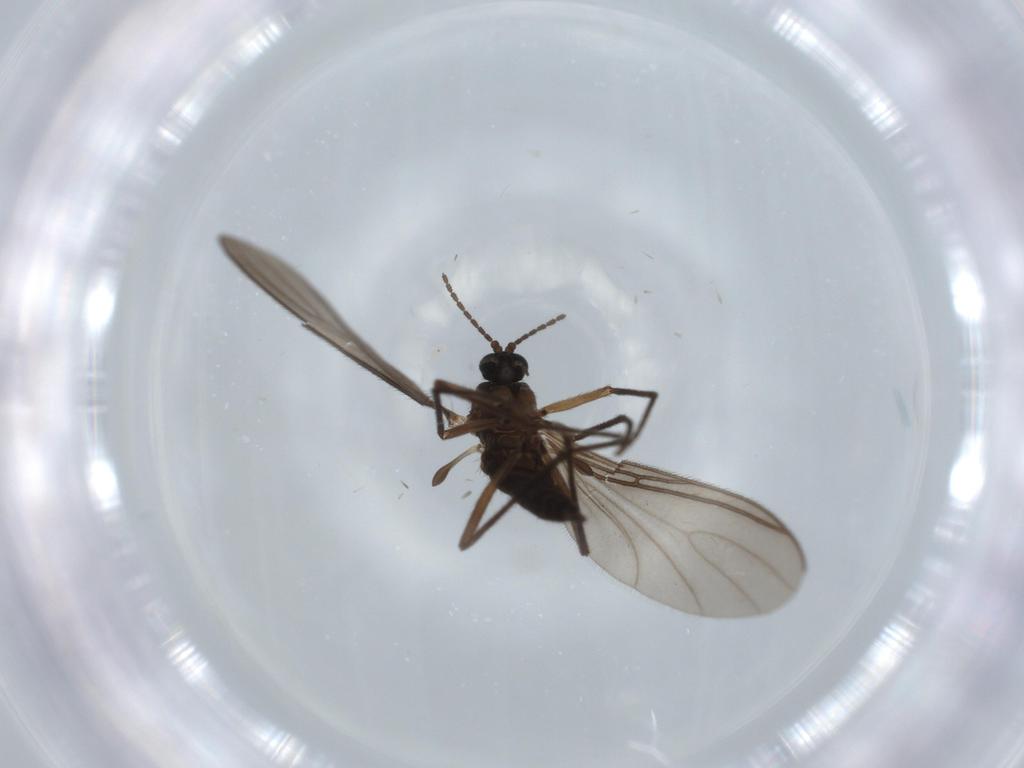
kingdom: Animalia
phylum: Arthropoda
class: Insecta
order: Diptera
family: Sciaridae
